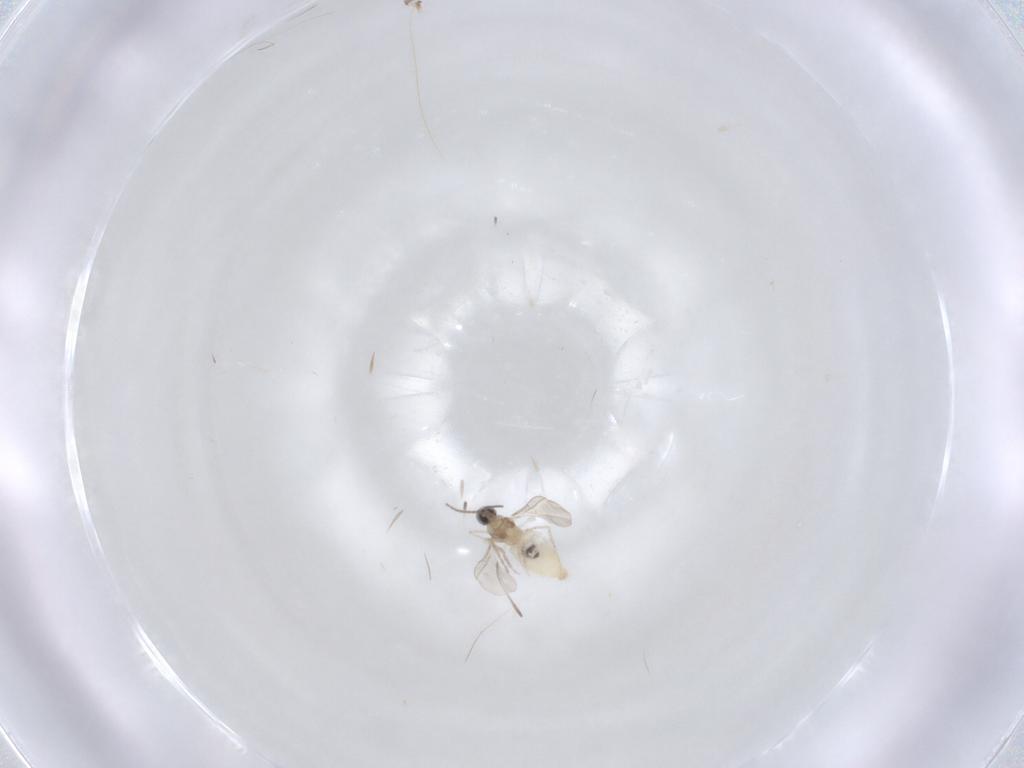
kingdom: Animalia
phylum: Arthropoda
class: Insecta
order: Diptera
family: Cecidomyiidae
